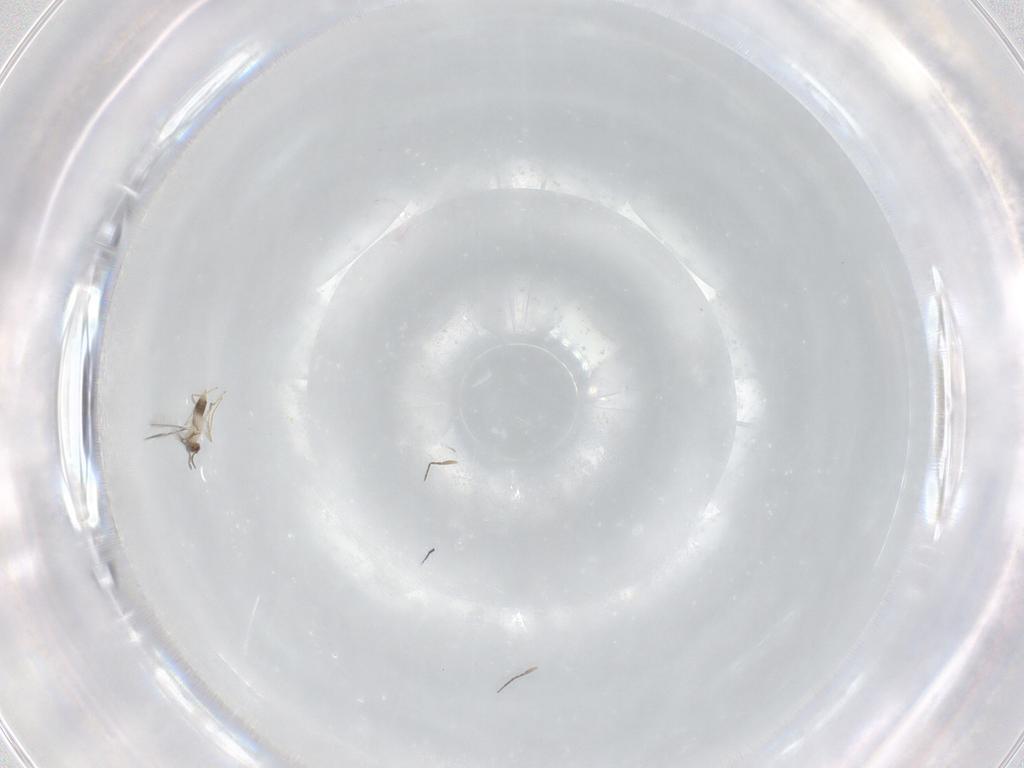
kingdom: Animalia
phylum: Arthropoda
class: Insecta
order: Hymenoptera
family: Mymaridae
